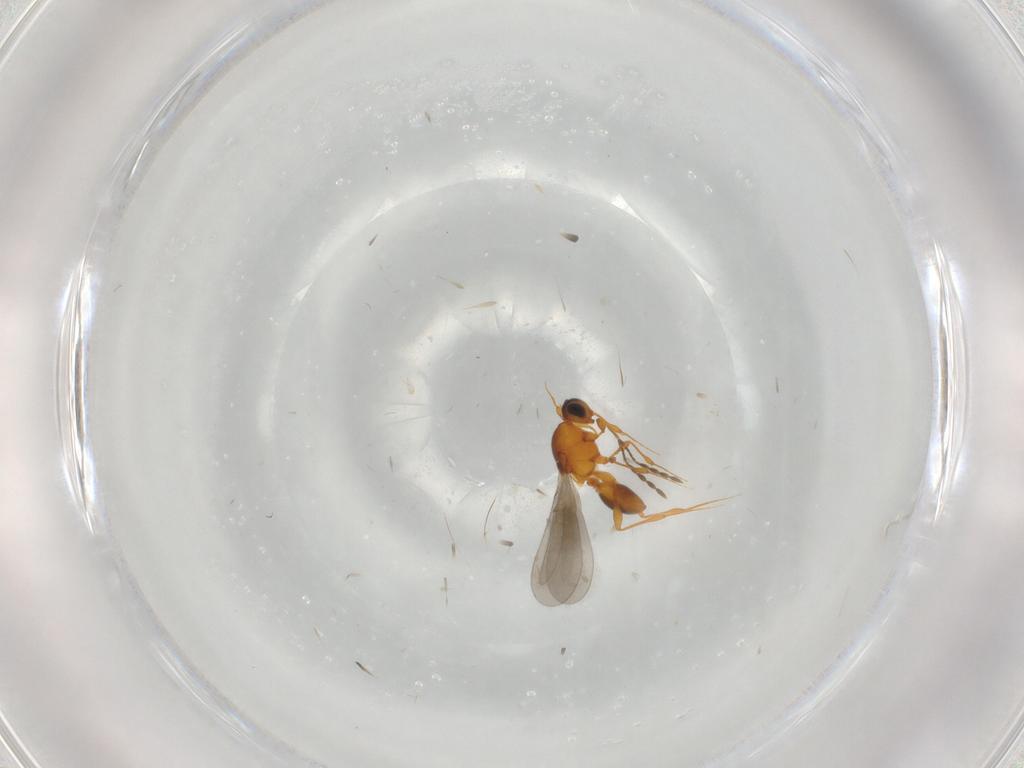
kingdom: Animalia
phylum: Arthropoda
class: Insecta
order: Hymenoptera
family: Platygastridae
